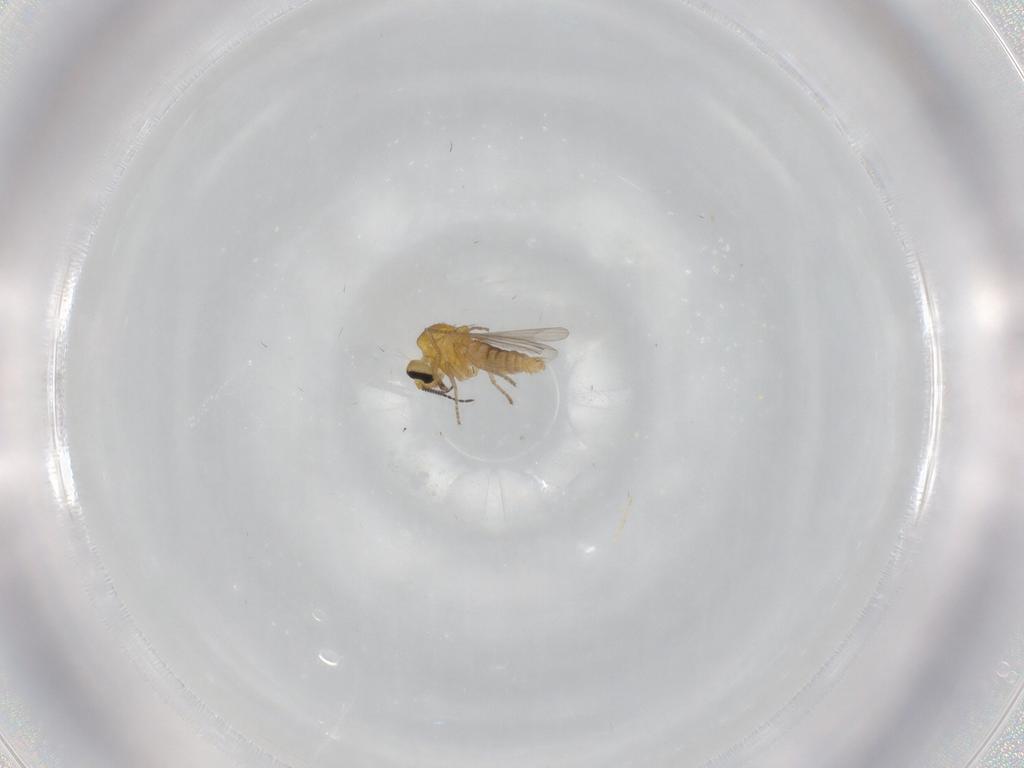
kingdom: Animalia
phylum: Arthropoda
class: Insecta
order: Diptera
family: Ceratopogonidae
